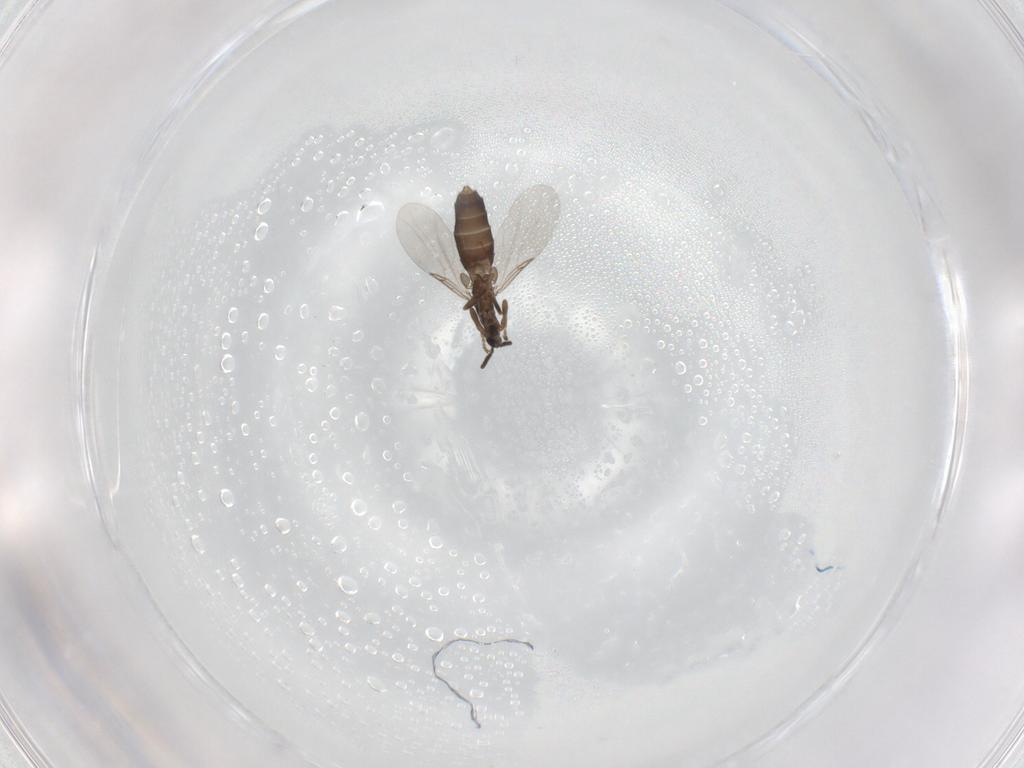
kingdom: Animalia
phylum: Arthropoda
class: Insecta
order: Diptera
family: Scatopsidae
